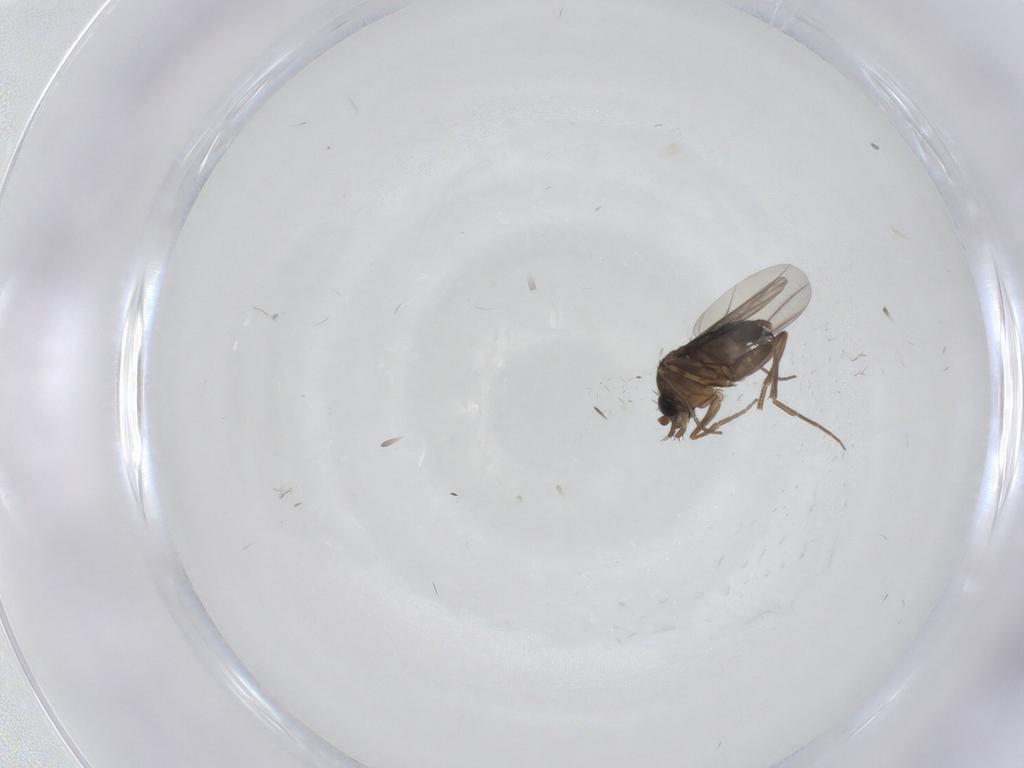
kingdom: Animalia
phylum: Arthropoda
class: Insecta
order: Diptera
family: Phoridae
